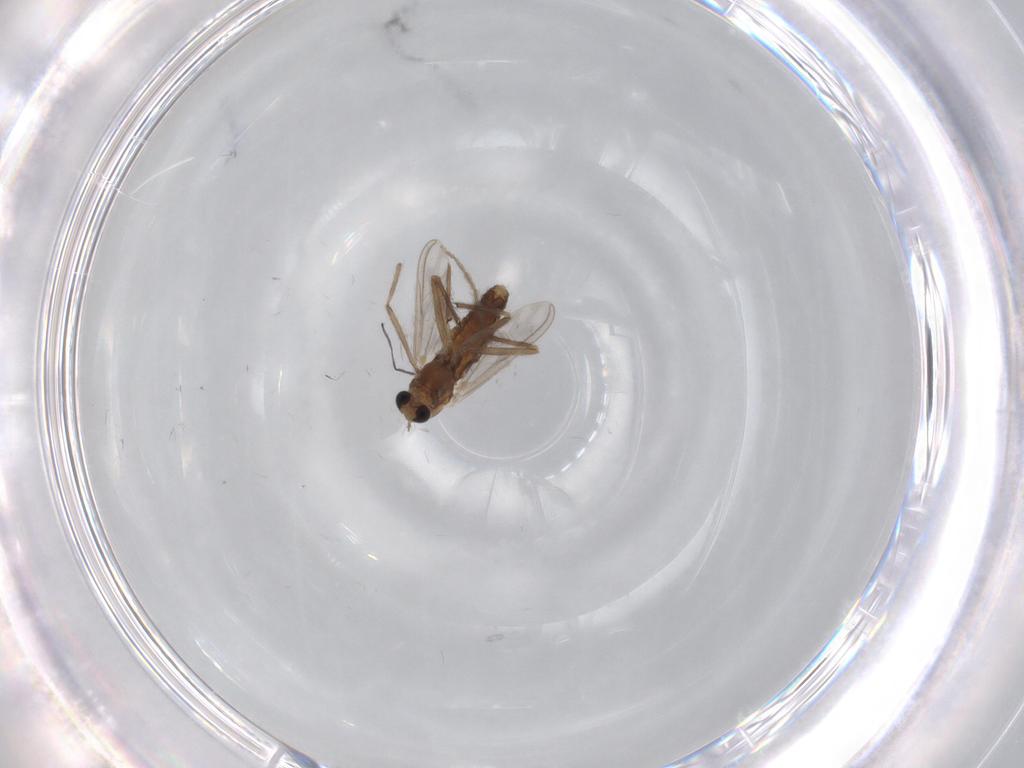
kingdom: Animalia
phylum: Arthropoda
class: Insecta
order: Diptera
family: Chironomidae
